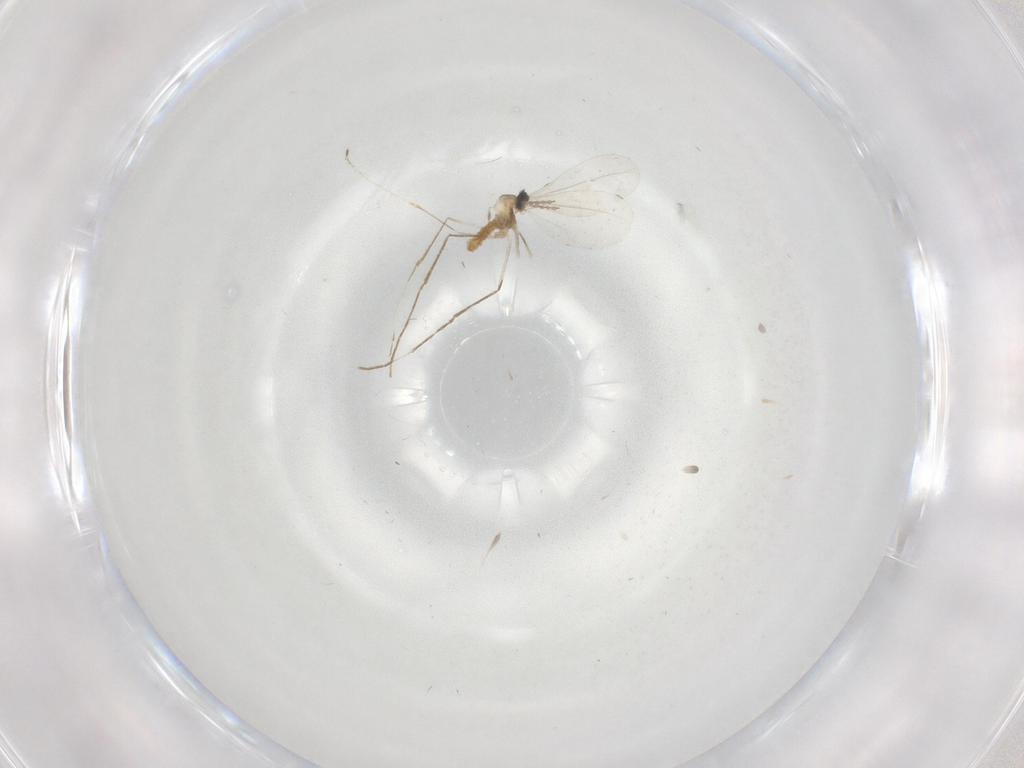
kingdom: Animalia
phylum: Arthropoda
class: Insecta
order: Diptera
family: Cecidomyiidae
